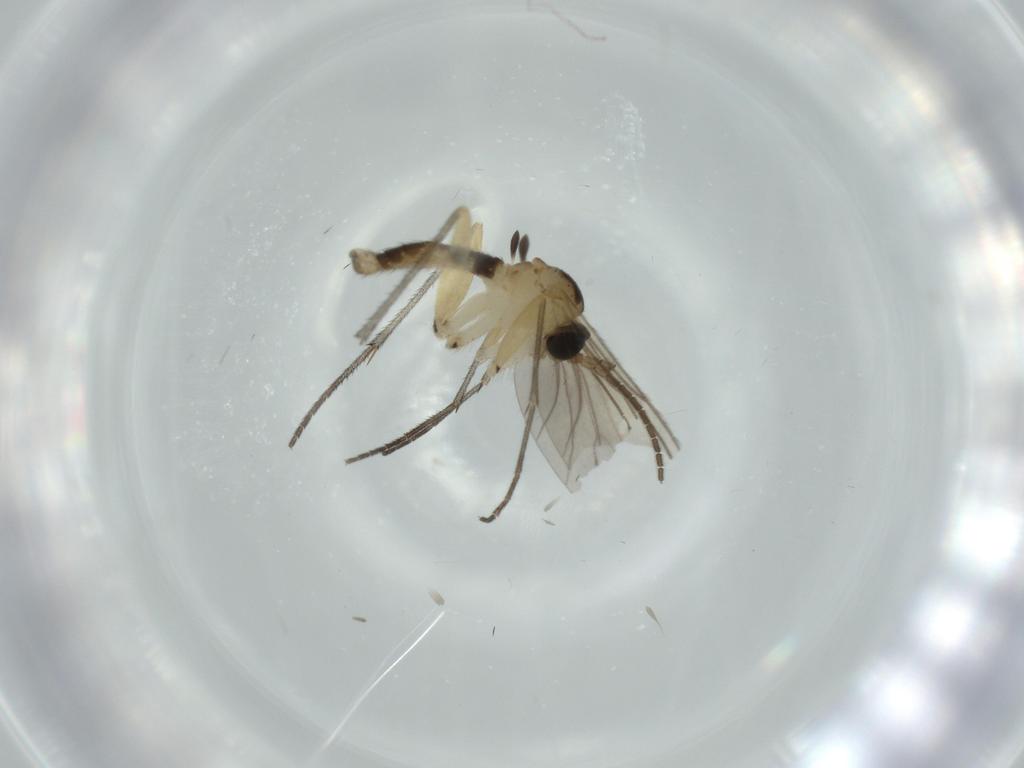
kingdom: Animalia
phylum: Arthropoda
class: Insecta
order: Diptera
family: Sciaridae
